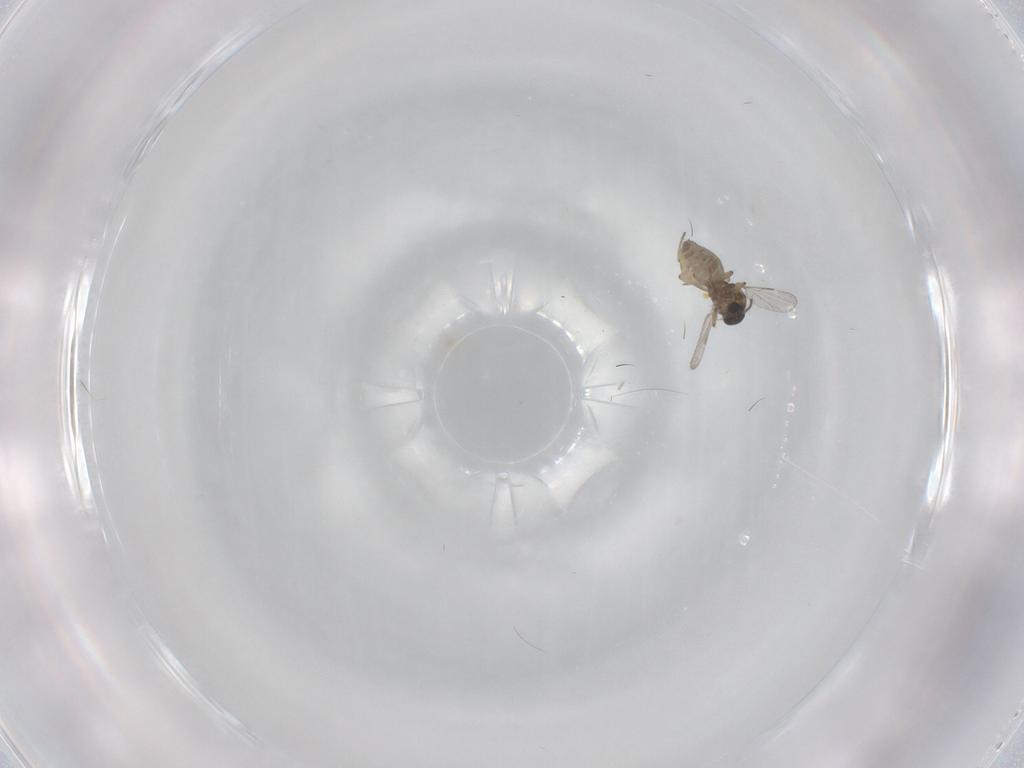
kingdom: Animalia
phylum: Arthropoda
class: Insecta
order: Diptera
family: Ceratopogonidae
